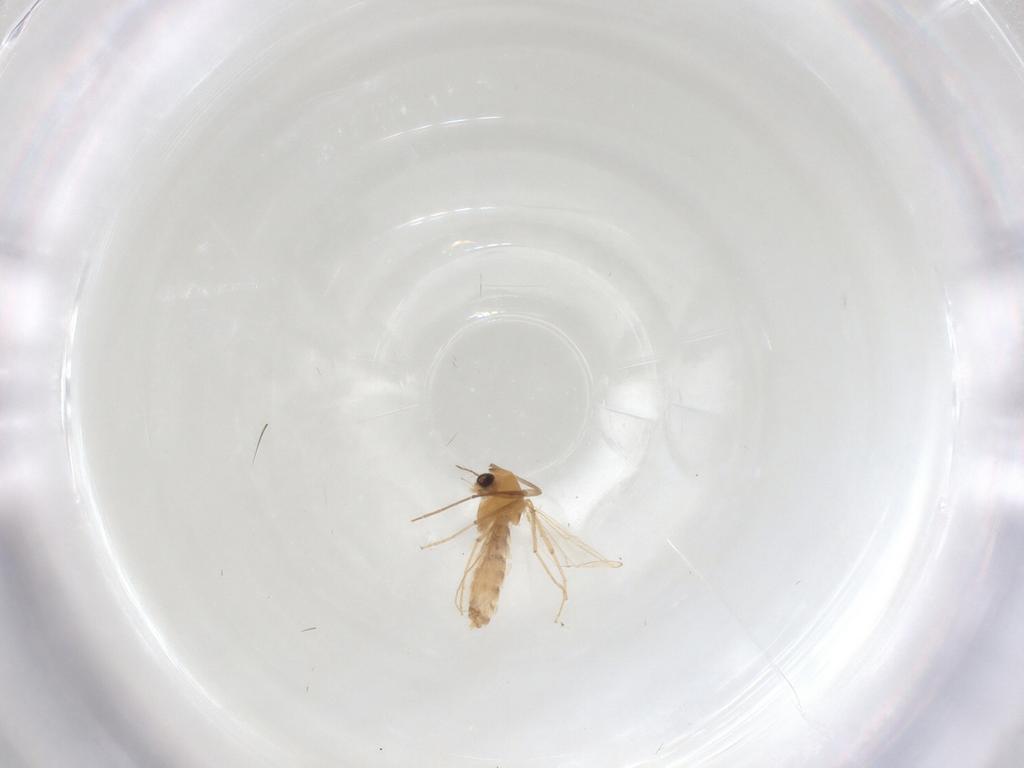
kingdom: Animalia
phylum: Arthropoda
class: Insecta
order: Diptera
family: Chironomidae
